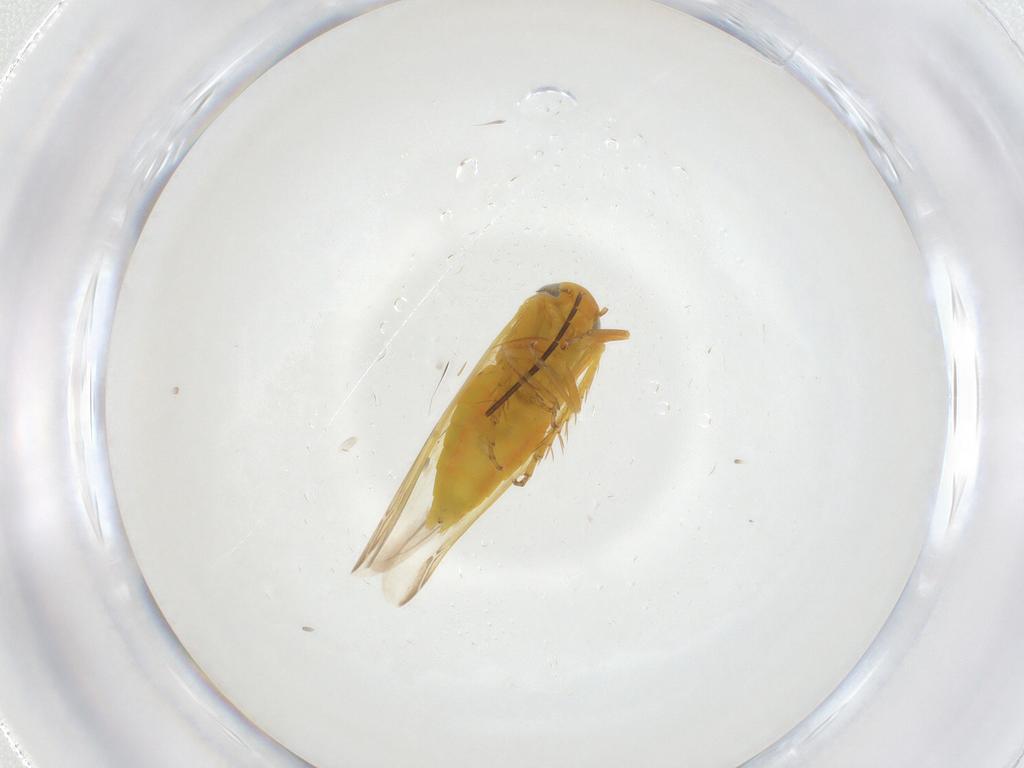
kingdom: Animalia
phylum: Arthropoda
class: Insecta
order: Hemiptera
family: Cicadellidae
